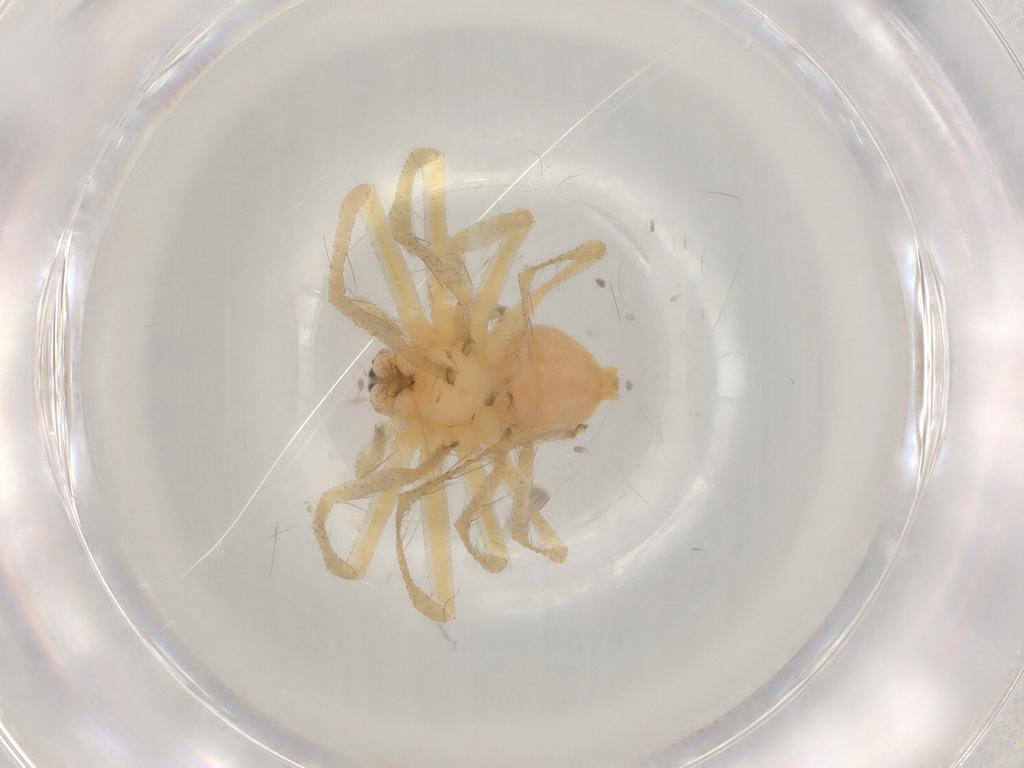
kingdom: Animalia
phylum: Arthropoda
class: Arachnida
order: Araneae
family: Sparassidae
